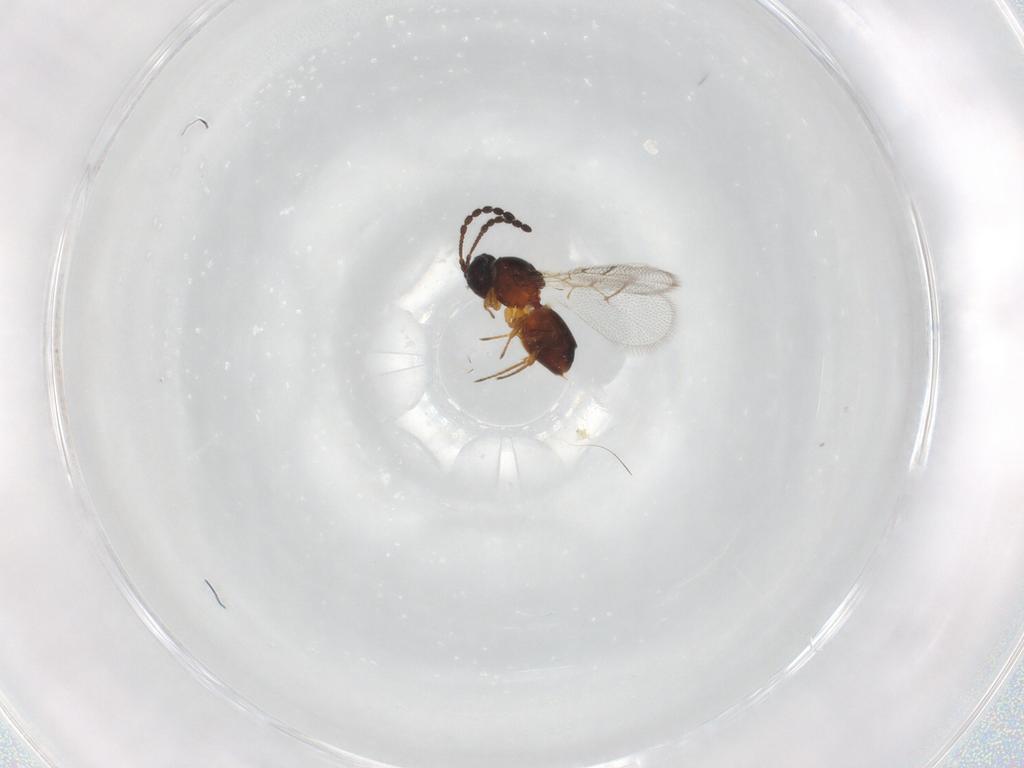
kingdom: Animalia
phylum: Arthropoda
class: Insecta
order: Hymenoptera
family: Figitidae
